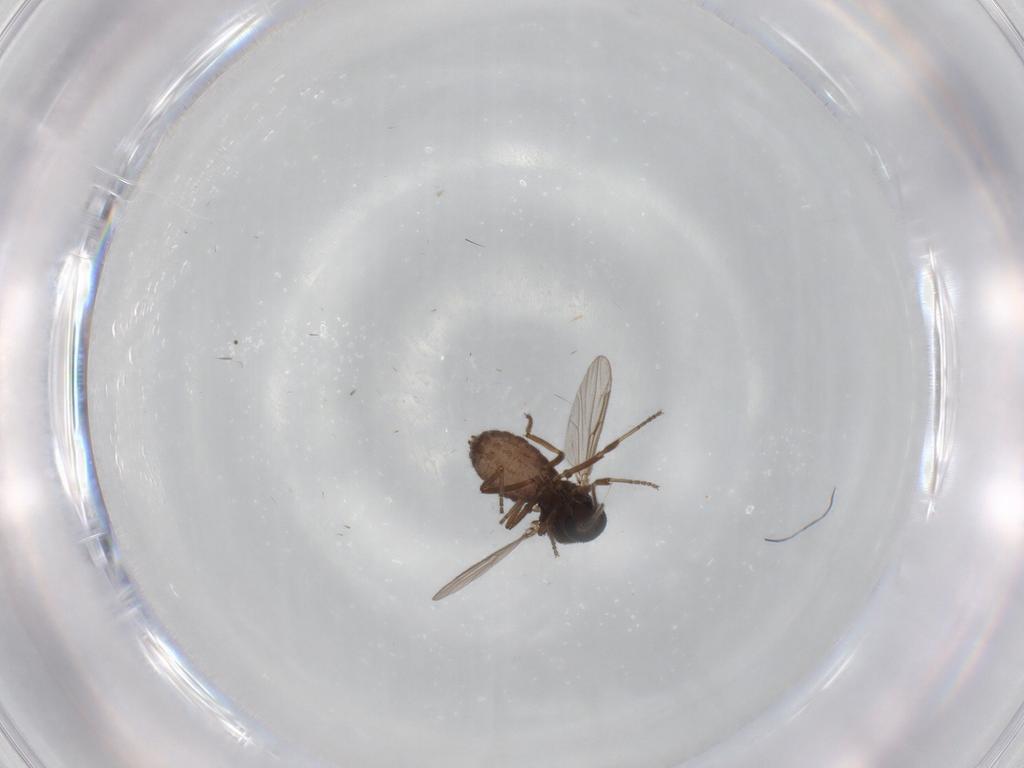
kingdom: Animalia
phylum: Arthropoda
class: Insecta
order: Diptera
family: Ceratopogonidae
